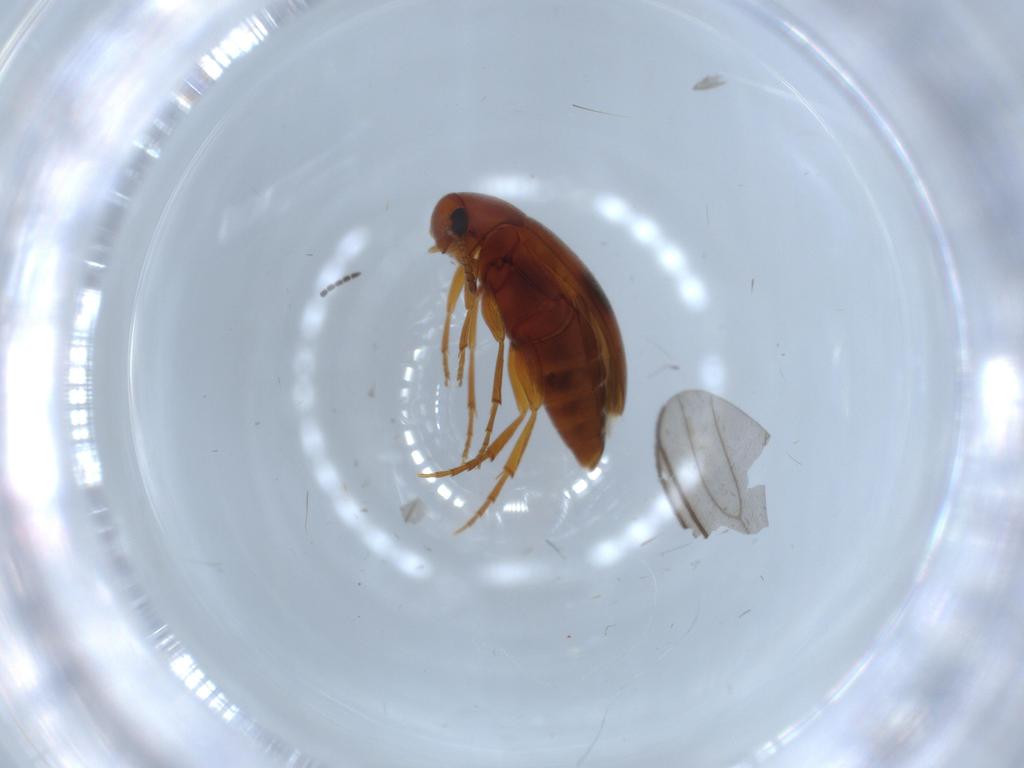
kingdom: Animalia
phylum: Arthropoda
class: Insecta
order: Coleoptera
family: Scraptiidae
